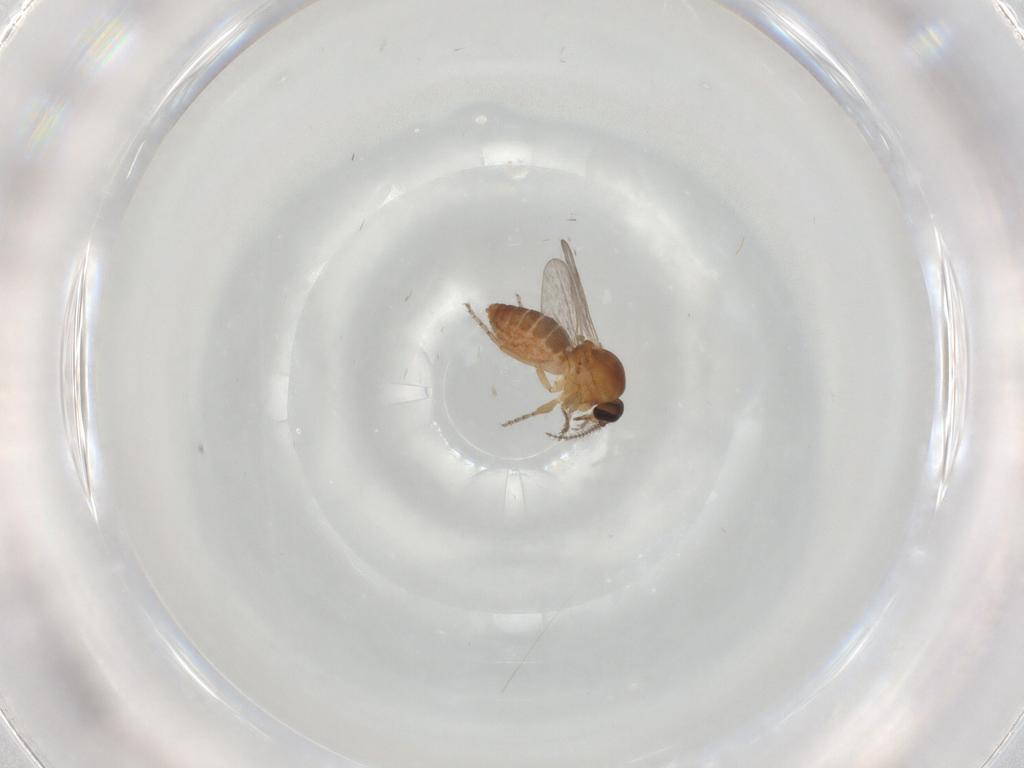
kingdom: Animalia
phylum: Arthropoda
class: Insecta
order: Diptera
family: Ceratopogonidae
